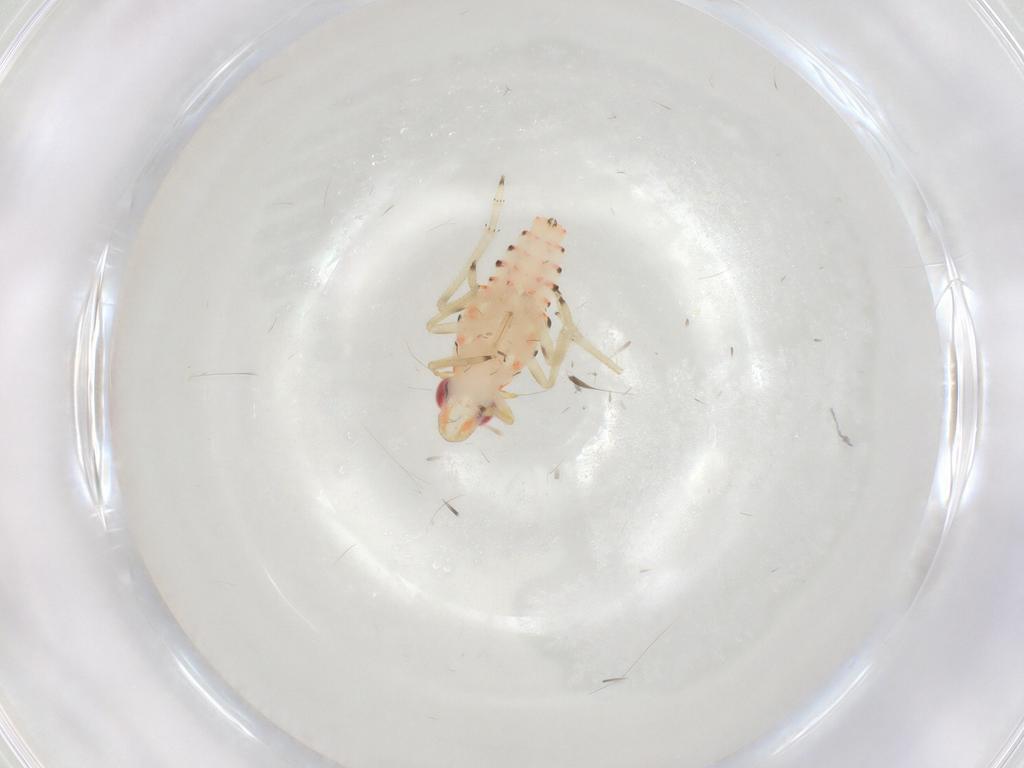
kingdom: Animalia
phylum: Arthropoda
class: Insecta
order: Hemiptera
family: Tropiduchidae
